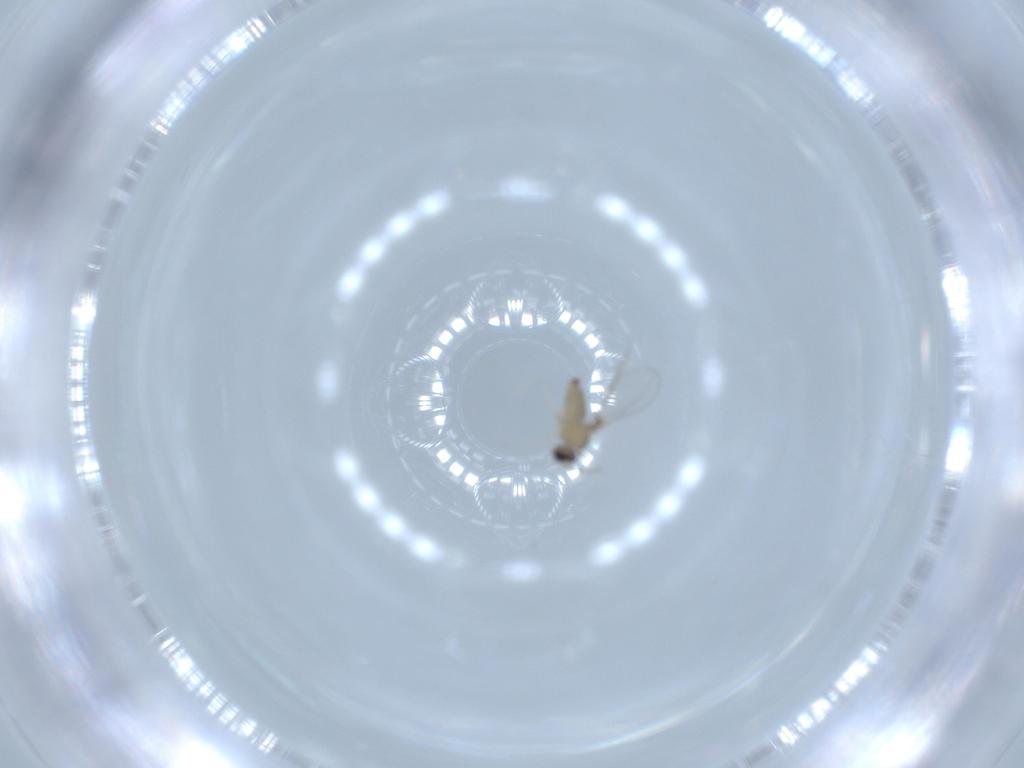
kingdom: Animalia
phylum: Arthropoda
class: Insecta
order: Diptera
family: Cecidomyiidae
